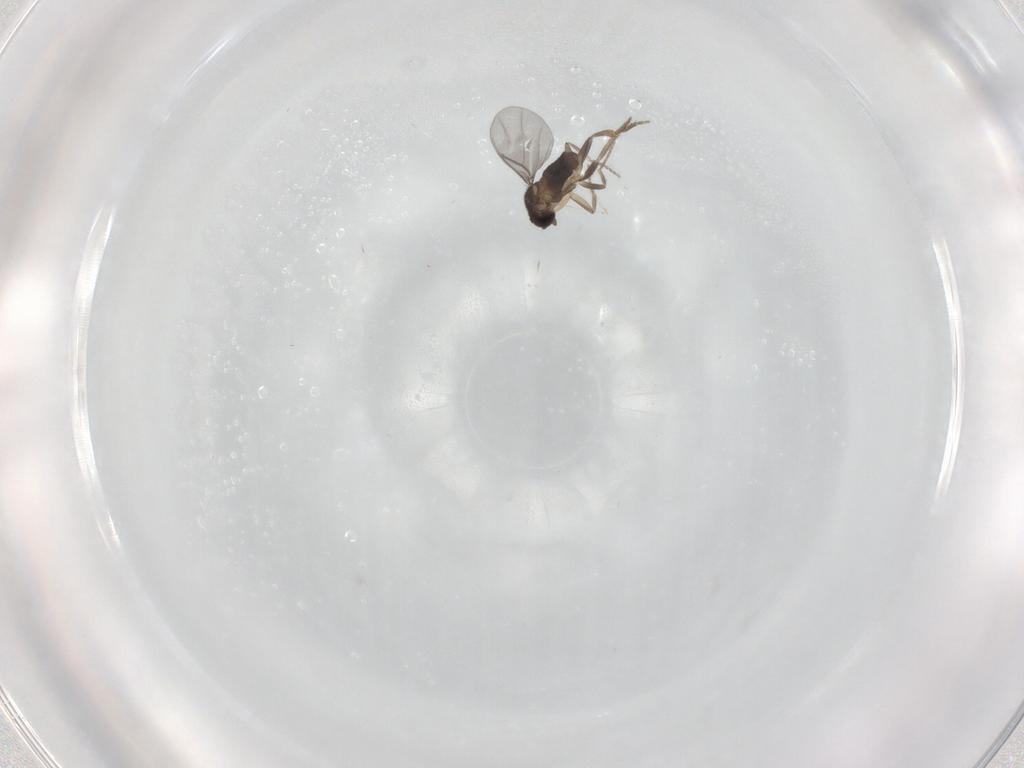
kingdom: Animalia
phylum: Arthropoda
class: Insecta
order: Diptera
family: Cecidomyiidae
